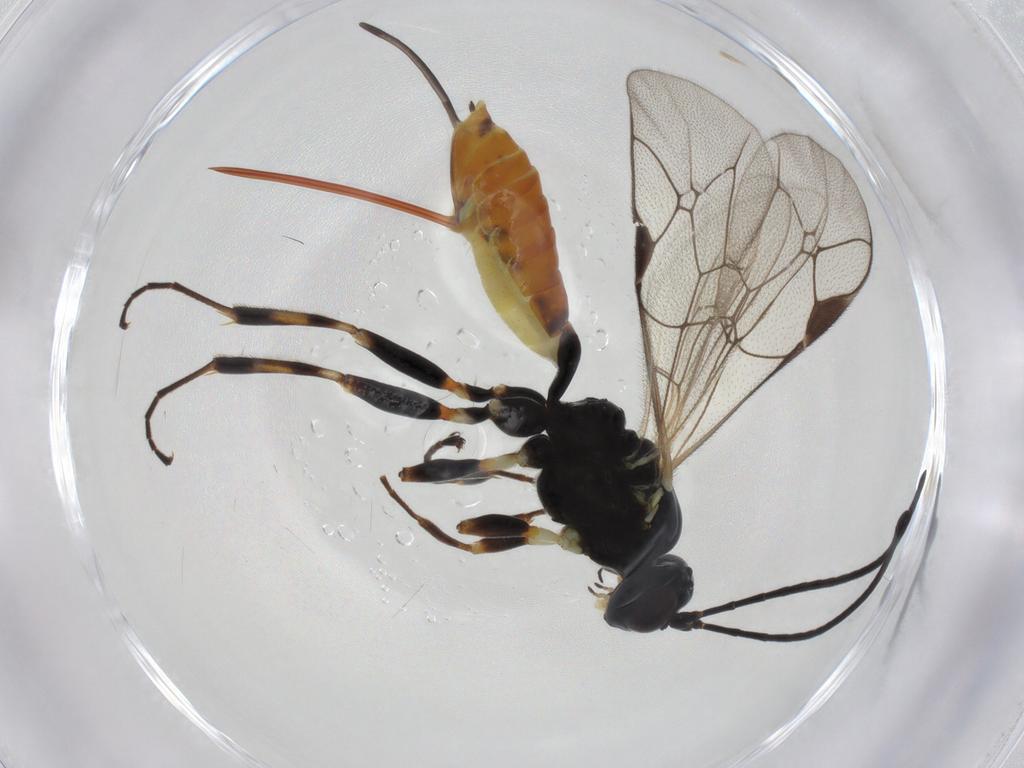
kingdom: Animalia
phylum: Arthropoda
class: Insecta
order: Hymenoptera
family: Ichneumonidae
